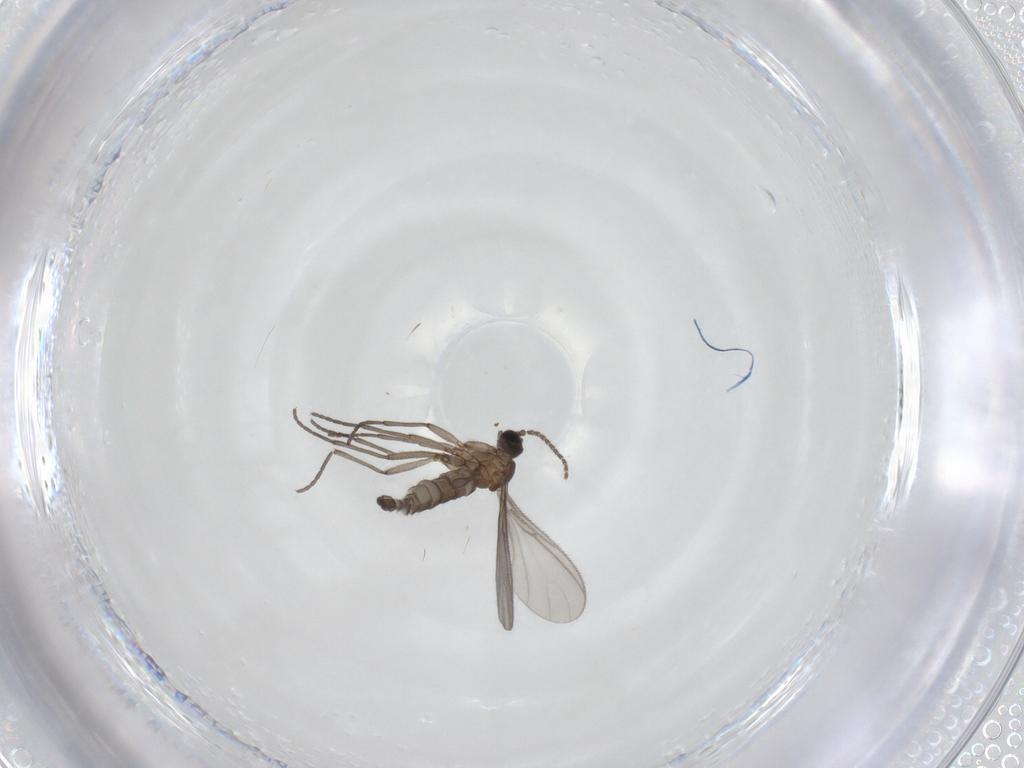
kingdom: Animalia
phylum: Arthropoda
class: Insecta
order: Diptera
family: Sciaridae
